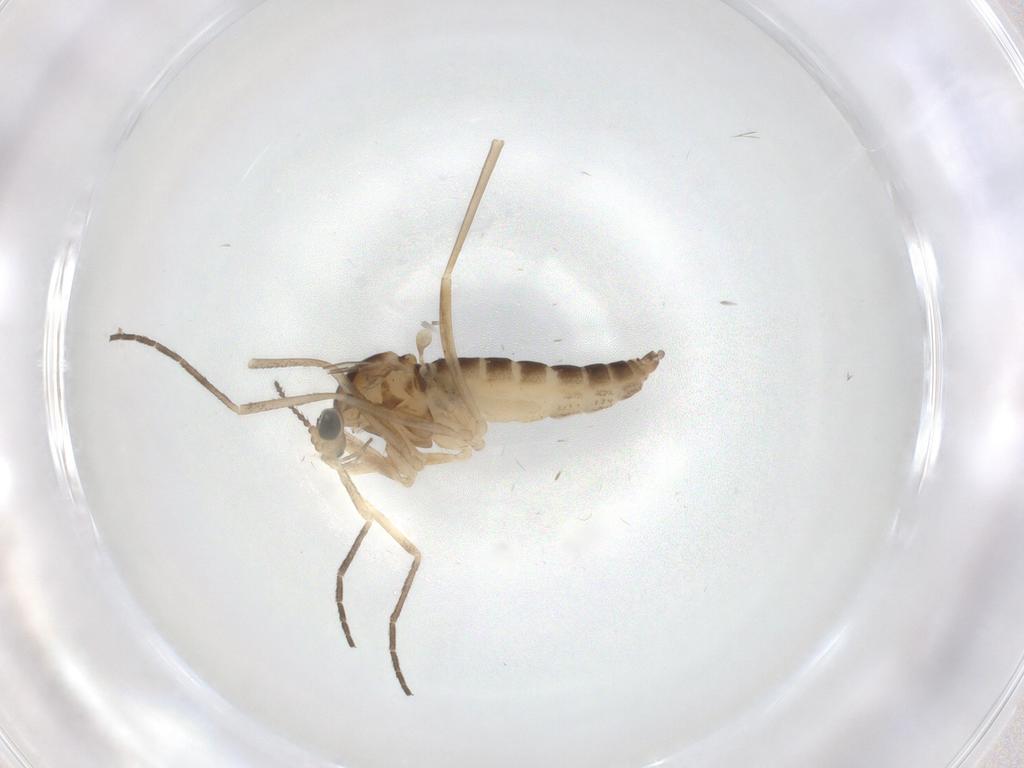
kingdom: Animalia
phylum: Arthropoda
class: Insecta
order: Diptera
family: Cecidomyiidae
